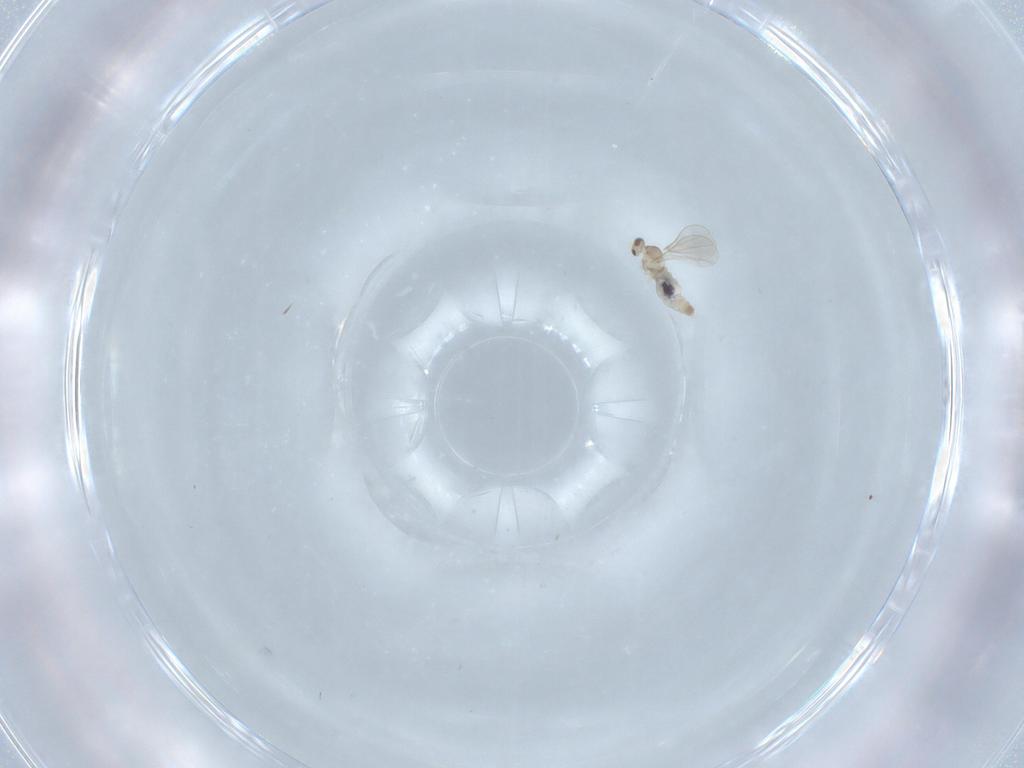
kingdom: Animalia
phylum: Arthropoda
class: Insecta
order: Diptera
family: Cecidomyiidae
